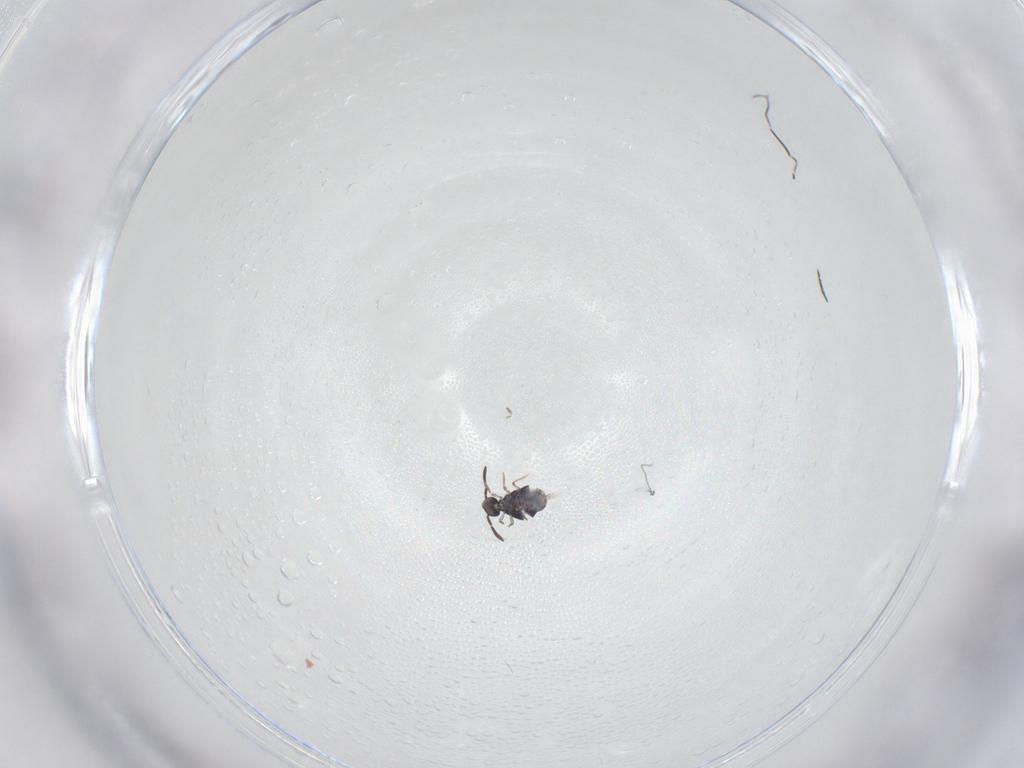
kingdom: Animalia
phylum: Arthropoda
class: Collembola
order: Symphypleona
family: Katiannidae
